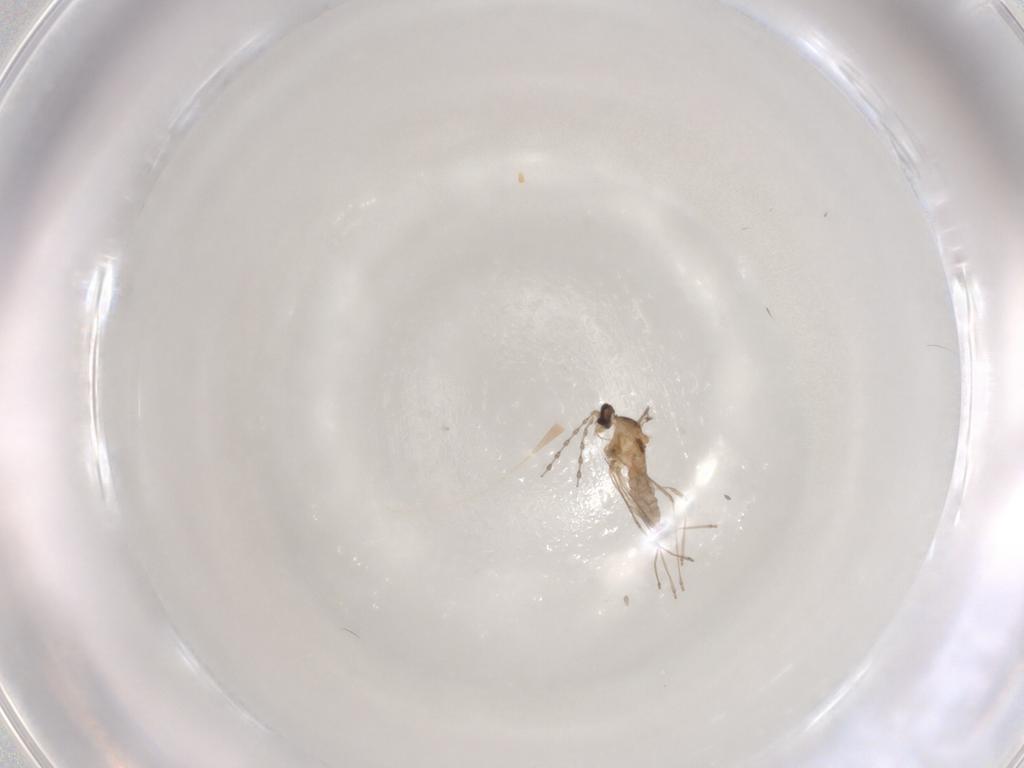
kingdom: Animalia
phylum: Arthropoda
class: Insecta
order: Diptera
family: Cecidomyiidae
